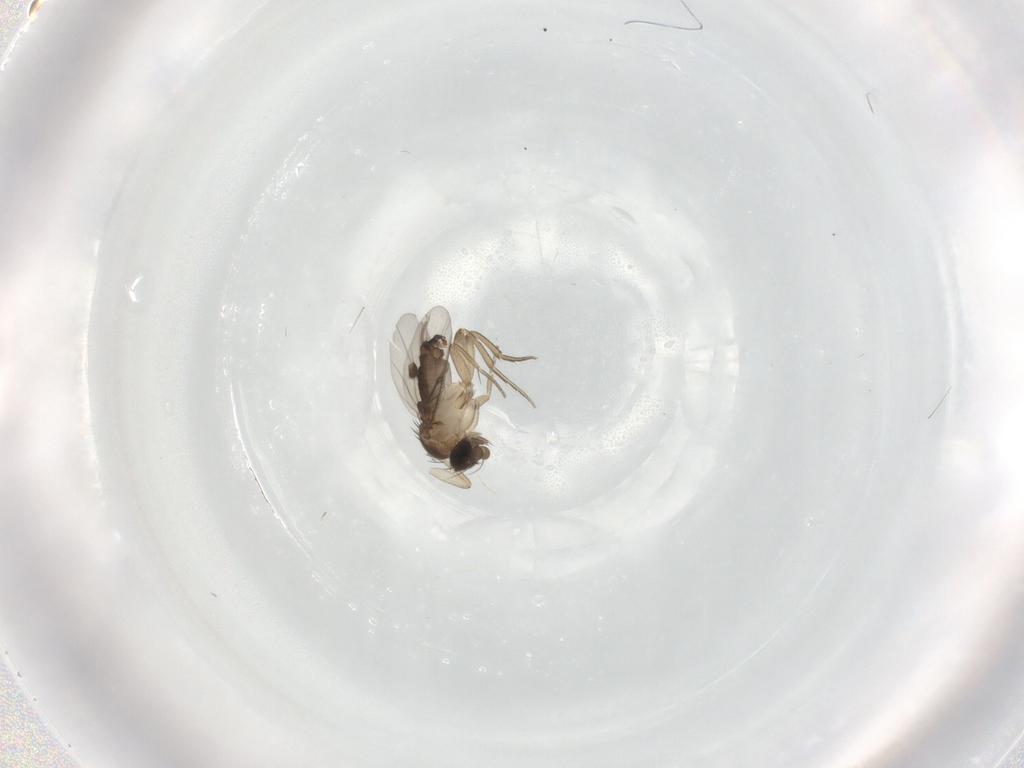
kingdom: Animalia
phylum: Arthropoda
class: Insecta
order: Diptera
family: Phoridae
